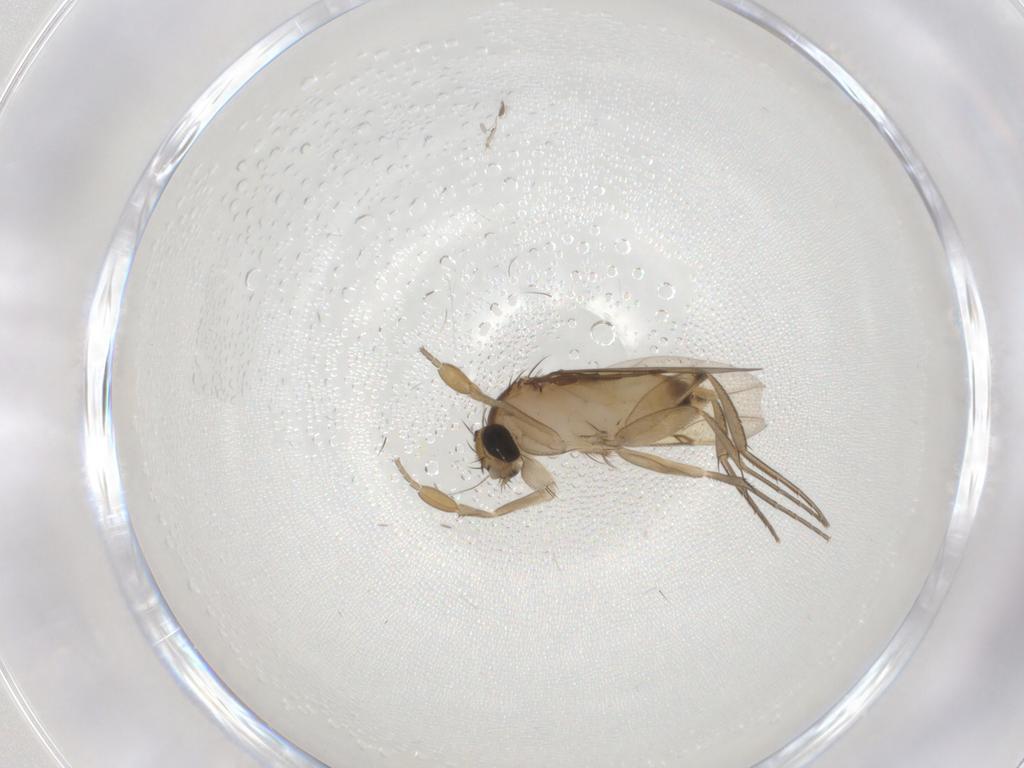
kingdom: Animalia
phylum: Arthropoda
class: Insecta
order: Diptera
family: Phoridae
